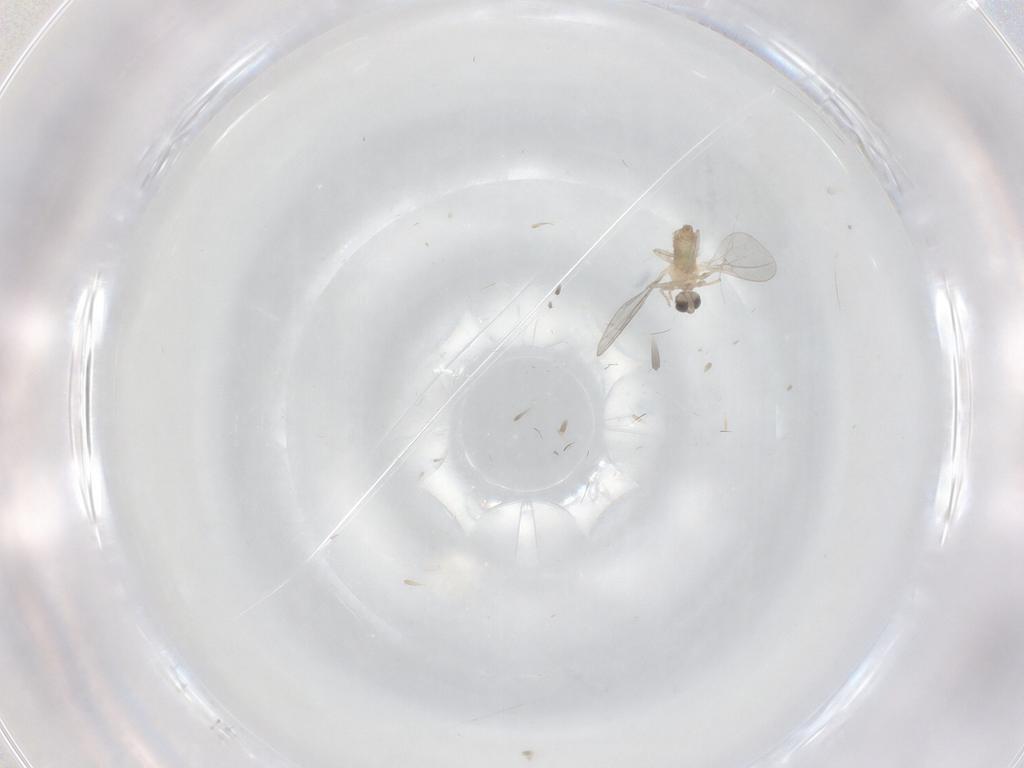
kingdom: Animalia
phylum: Arthropoda
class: Insecta
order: Diptera
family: Cecidomyiidae
